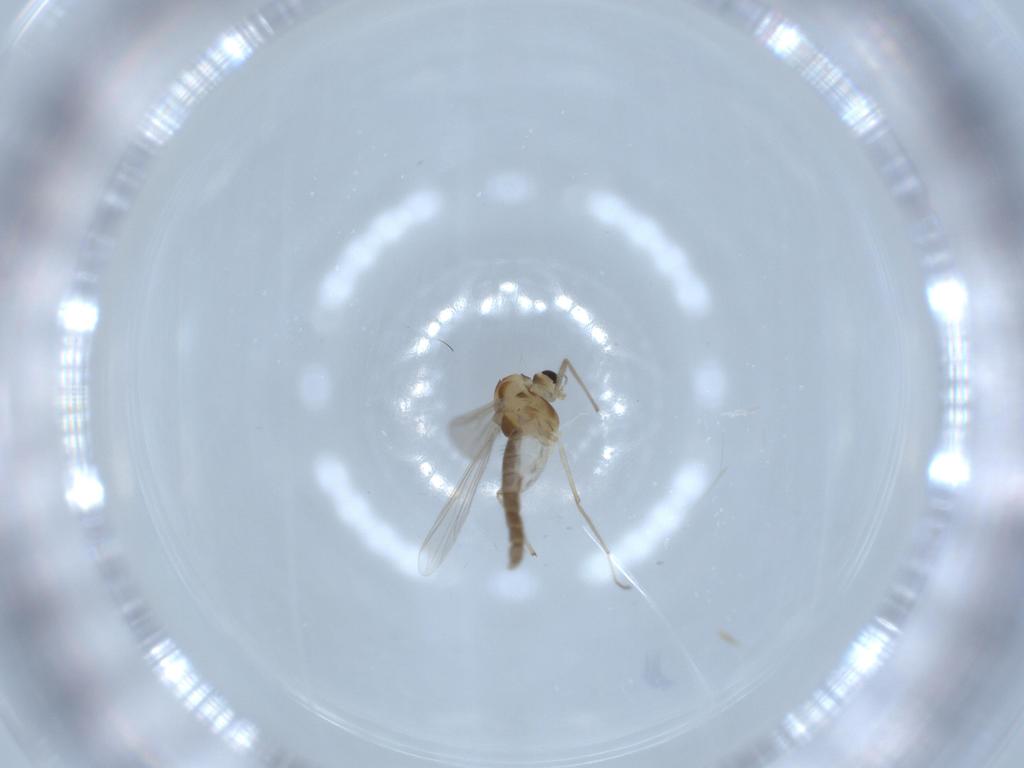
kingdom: Animalia
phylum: Arthropoda
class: Insecta
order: Diptera
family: Chironomidae
